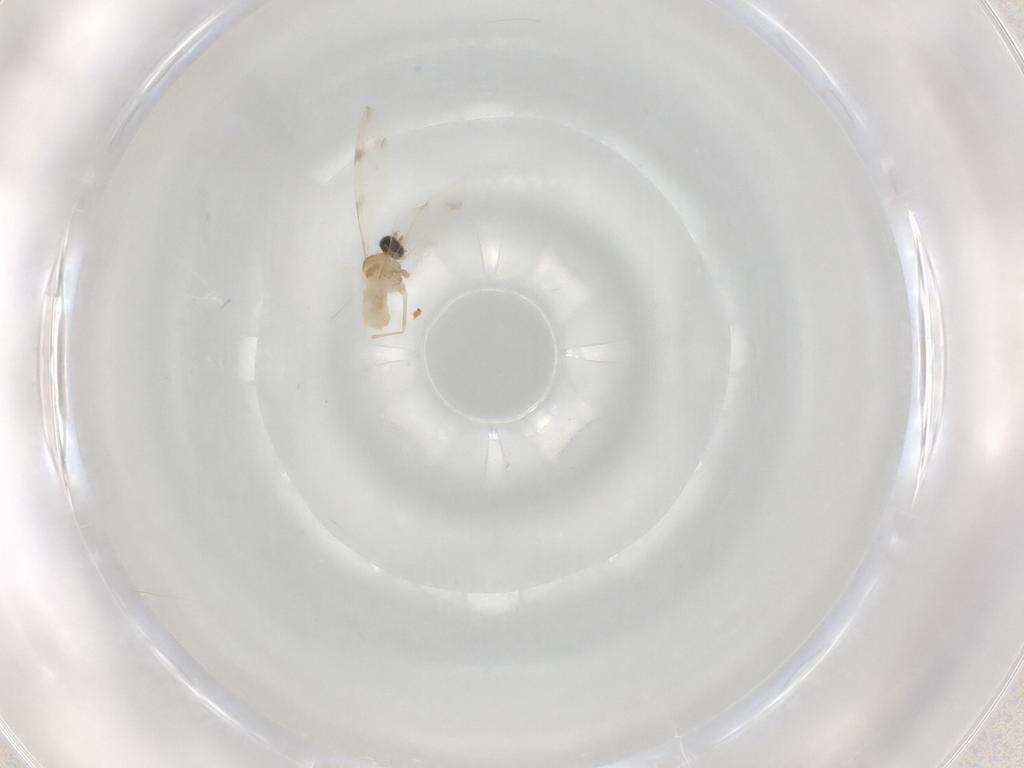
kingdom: Animalia
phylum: Arthropoda
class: Insecta
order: Diptera
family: Cecidomyiidae
